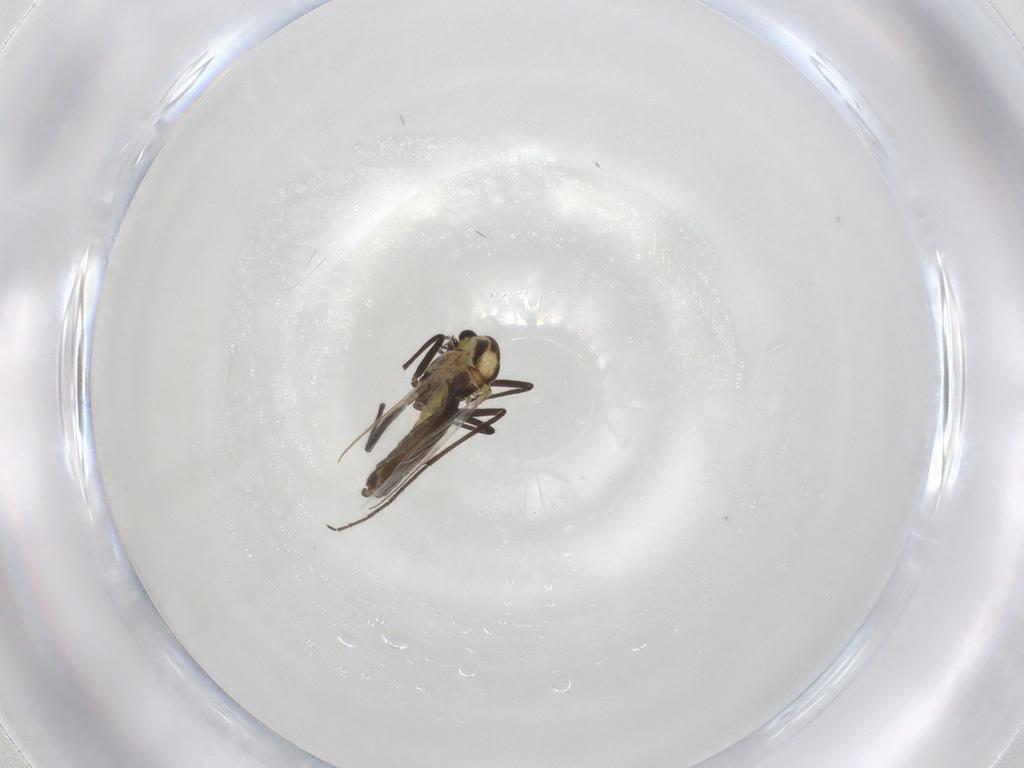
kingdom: Animalia
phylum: Arthropoda
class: Insecta
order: Diptera
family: Chironomidae
